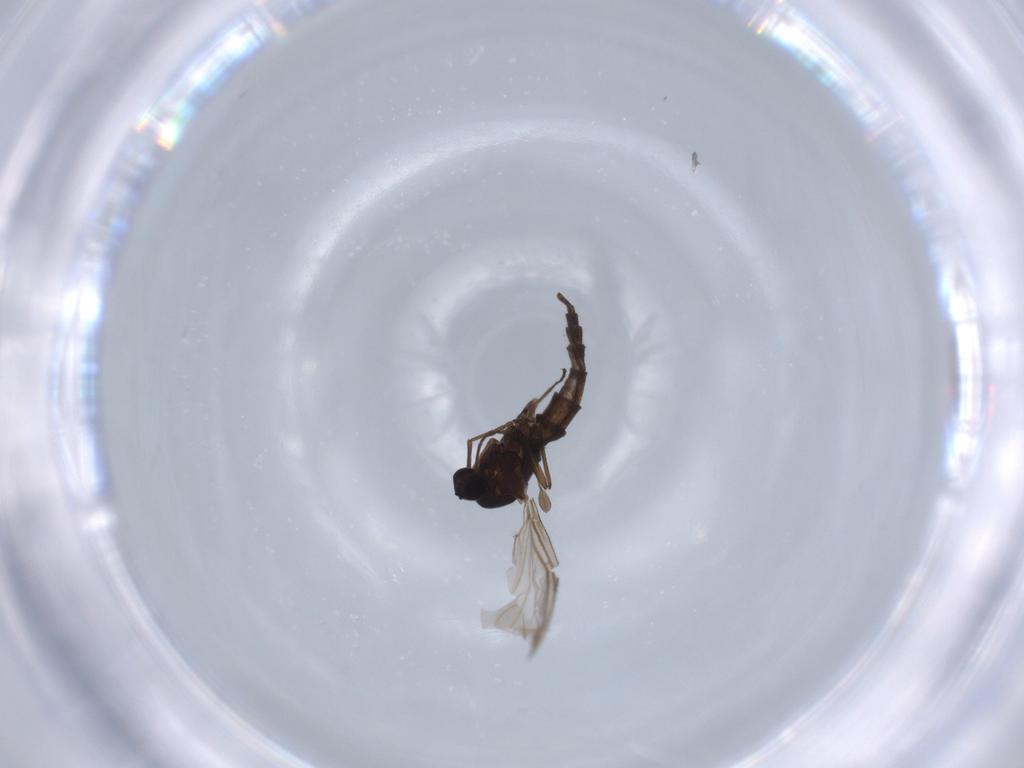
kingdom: Animalia
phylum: Arthropoda
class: Insecta
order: Diptera
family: Sciaridae
